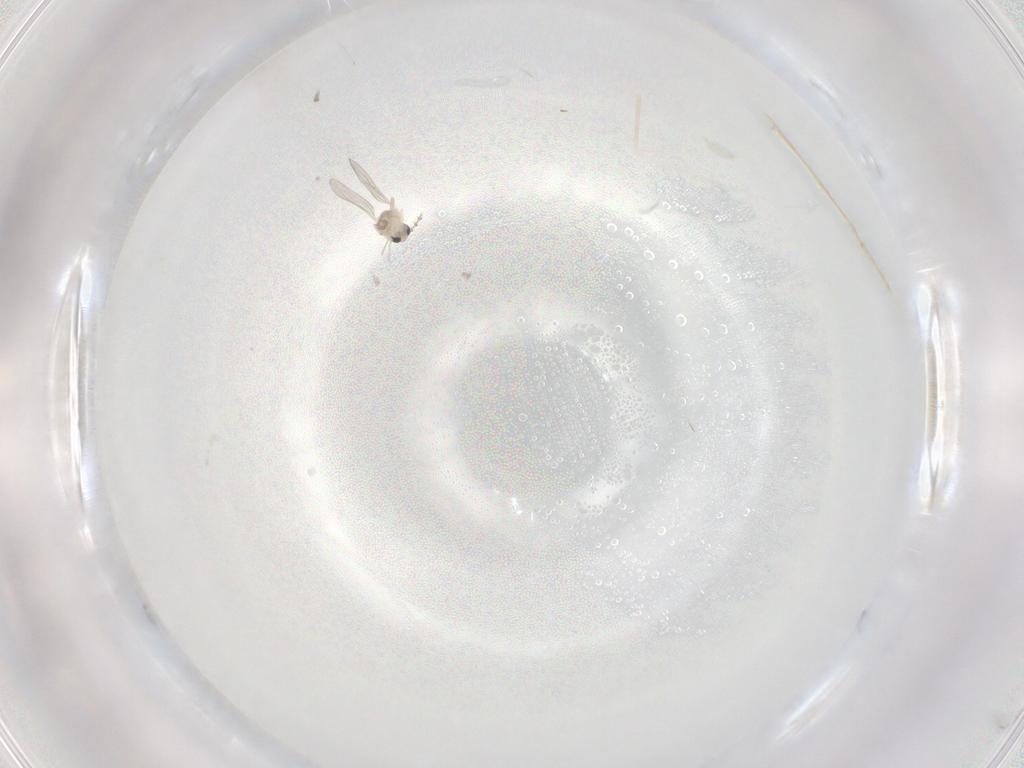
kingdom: Animalia
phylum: Arthropoda
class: Insecta
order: Diptera
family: Cecidomyiidae
